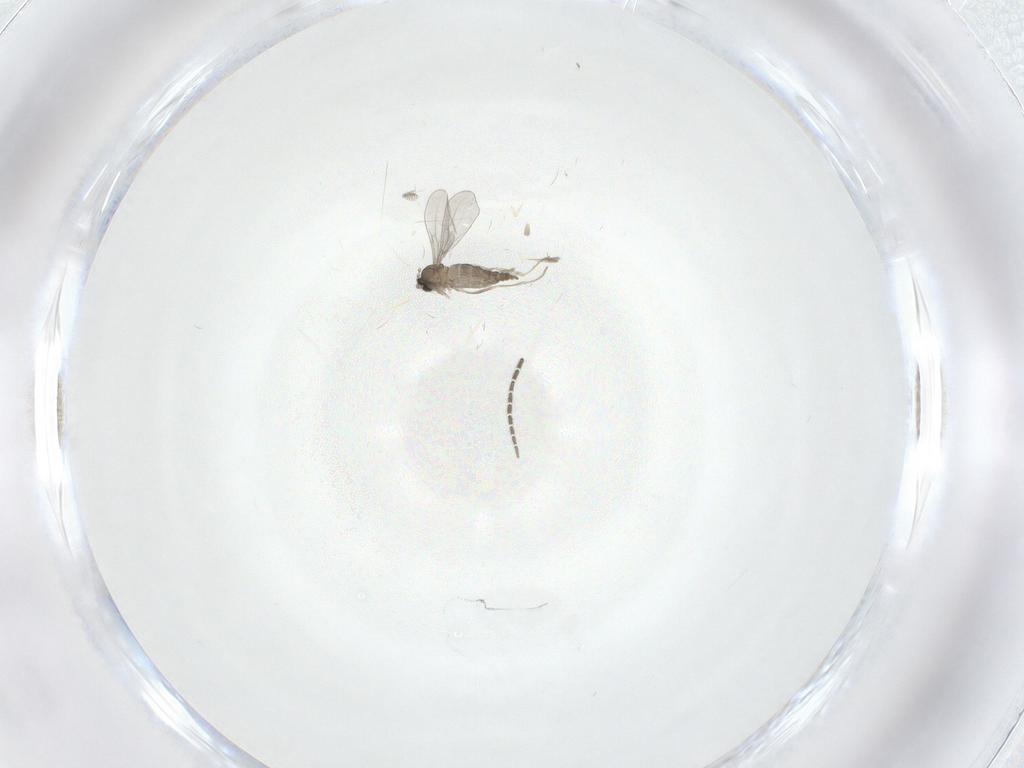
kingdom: Animalia
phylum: Arthropoda
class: Insecta
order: Diptera
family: Cecidomyiidae
